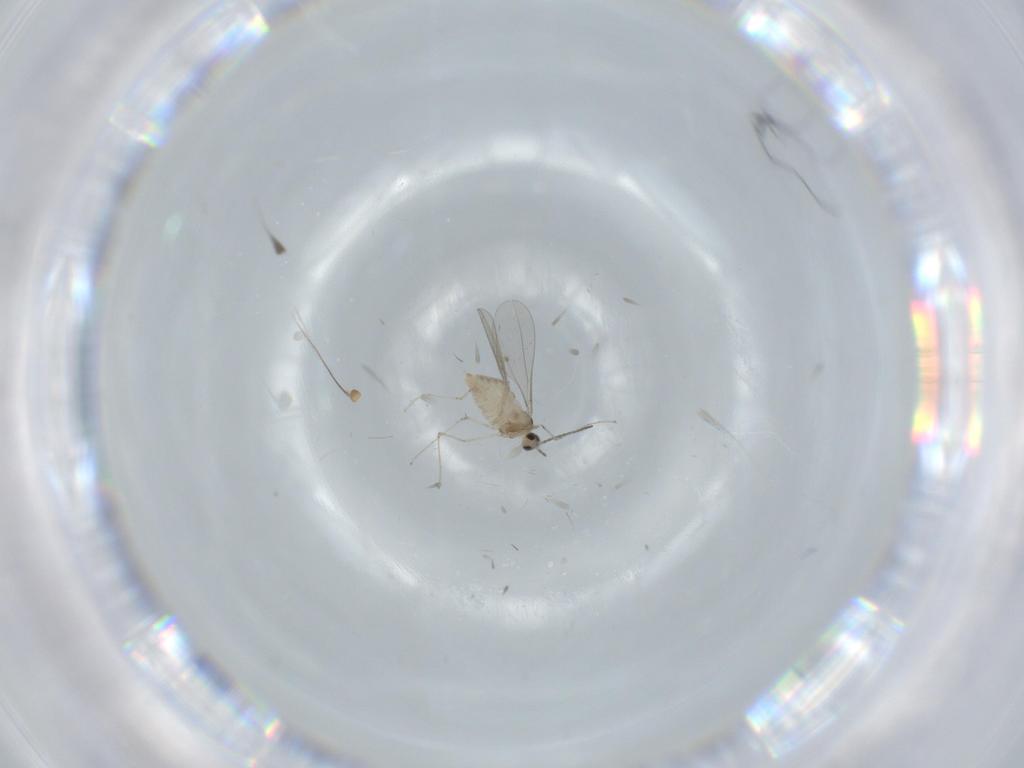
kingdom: Animalia
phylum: Arthropoda
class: Insecta
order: Diptera
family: Cecidomyiidae
